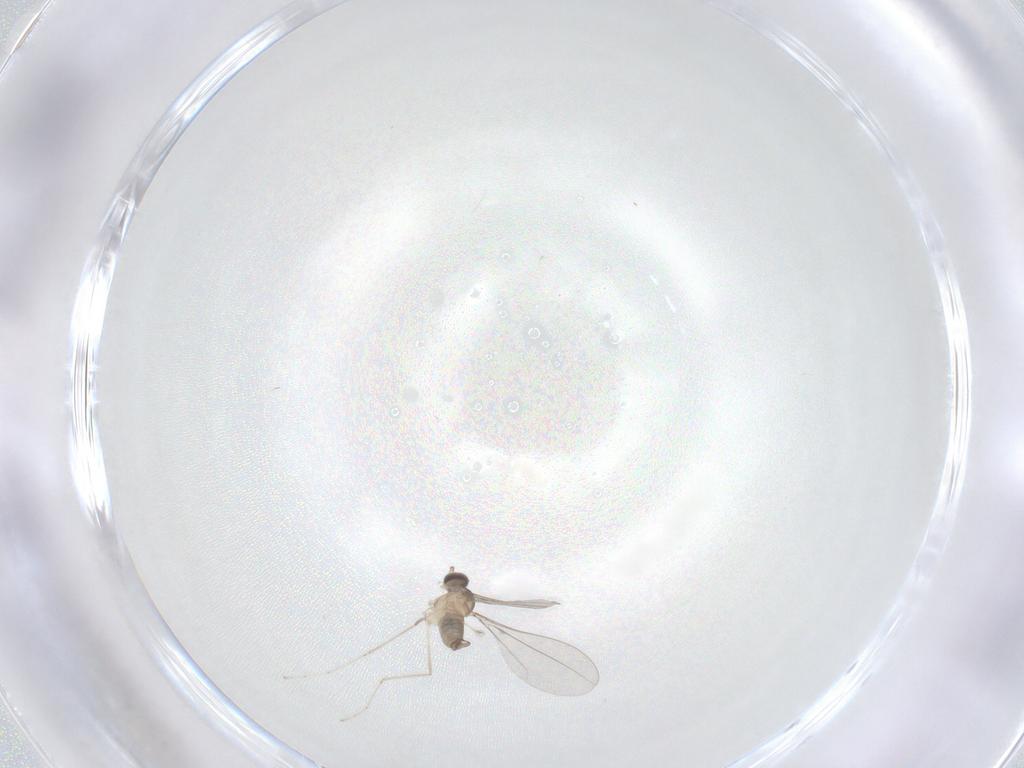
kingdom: Animalia
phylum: Arthropoda
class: Insecta
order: Diptera
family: Cecidomyiidae
